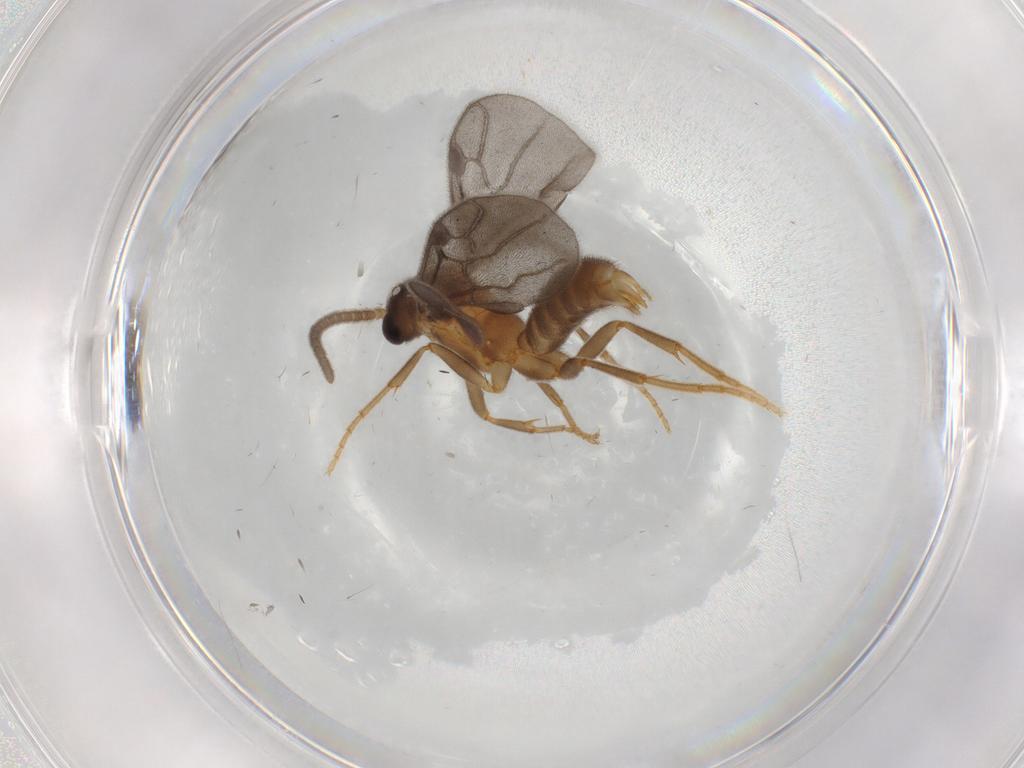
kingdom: Animalia
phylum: Arthropoda
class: Insecta
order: Hymenoptera
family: Formicidae
